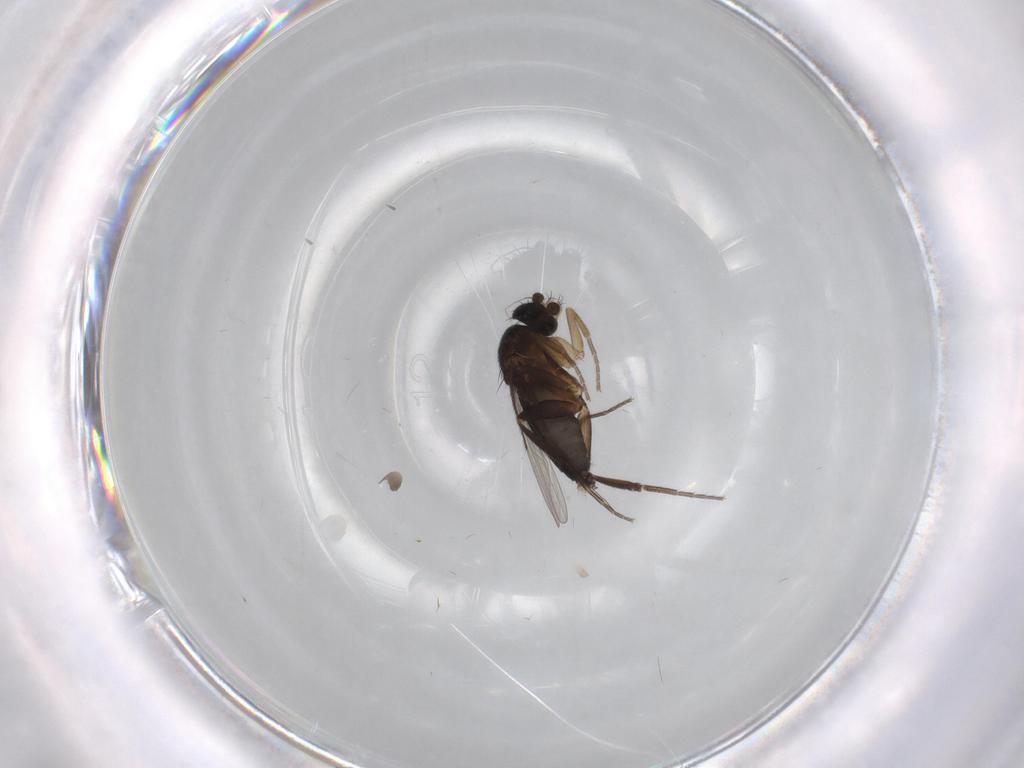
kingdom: Animalia
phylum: Arthropoda
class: Insecta
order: Diptera
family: Phoridae
